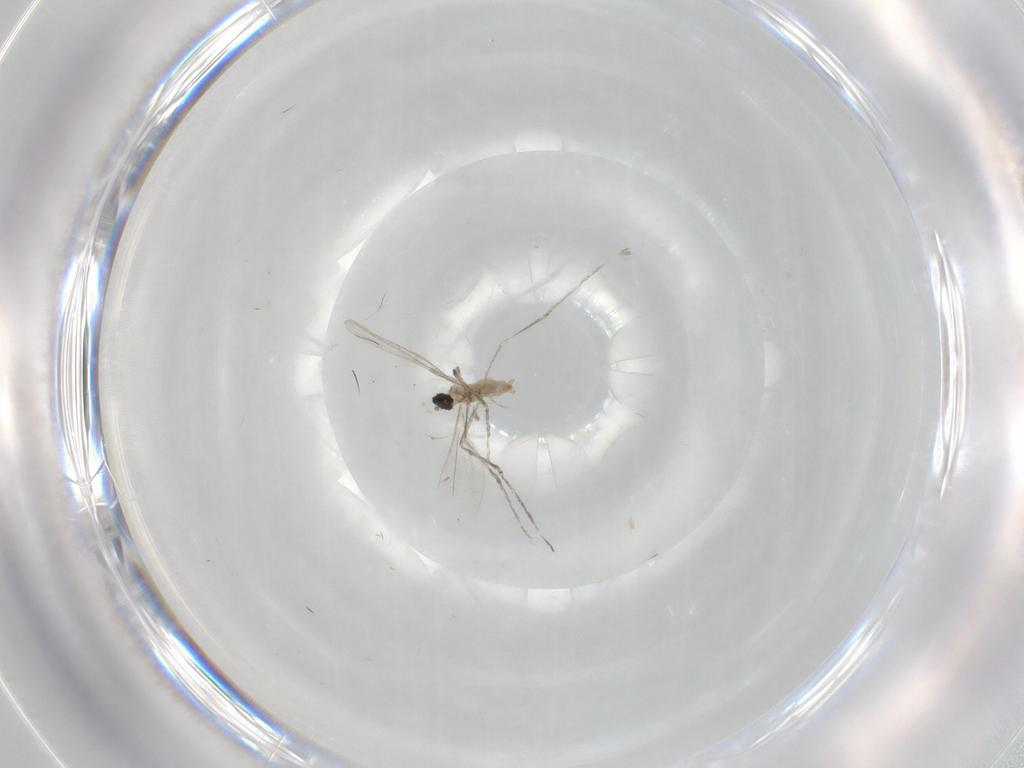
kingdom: Animalia
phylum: Arthropoda
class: Insecta
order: Diptera
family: Cecidomyiidae
